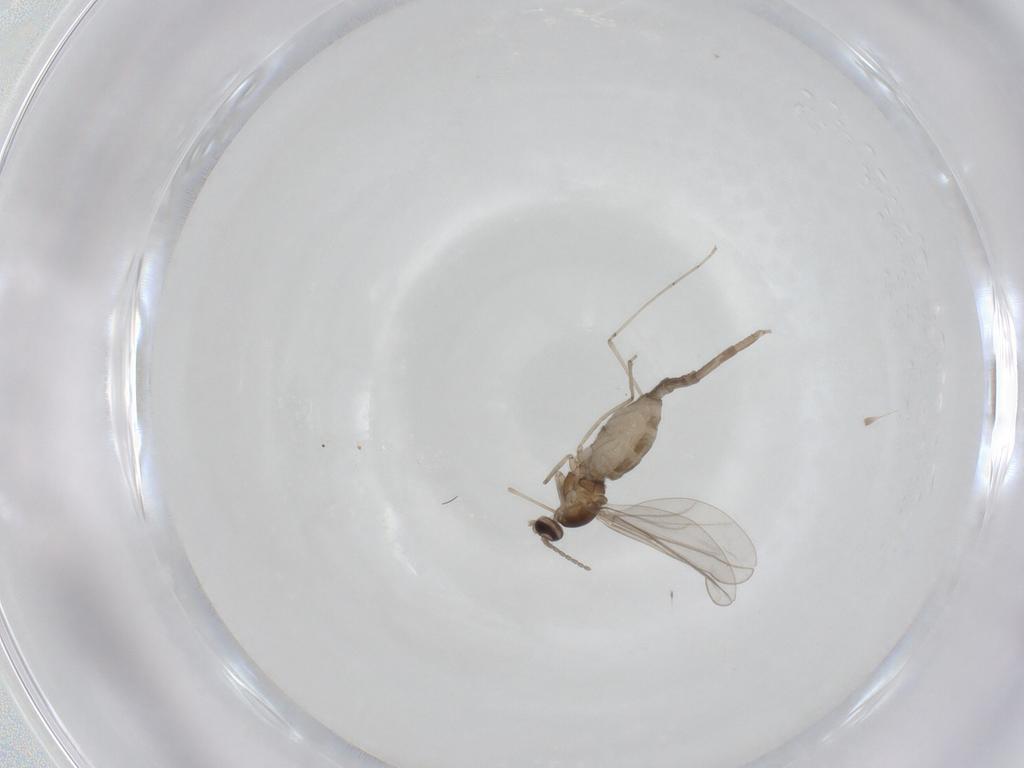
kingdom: Animalia
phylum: Arthropoda
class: Insecta
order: Diptera
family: Cecidomyiidae
